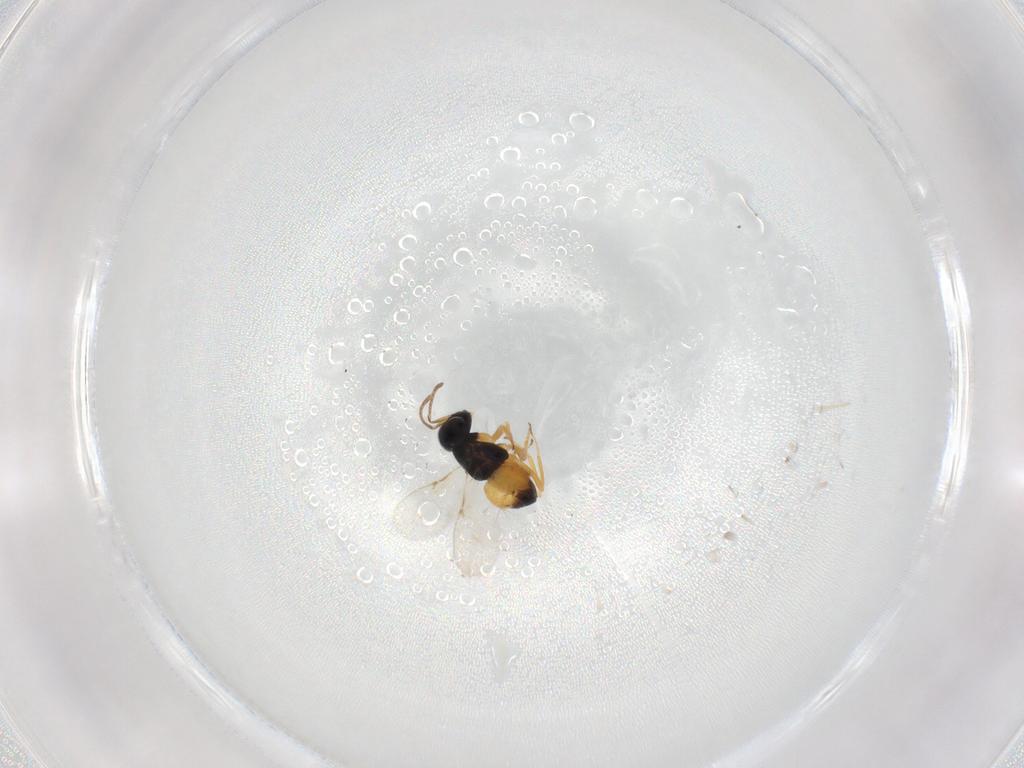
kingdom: Animalia
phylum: Arthropoda
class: Insecta
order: Hymenoptera
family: Encyrtidae
